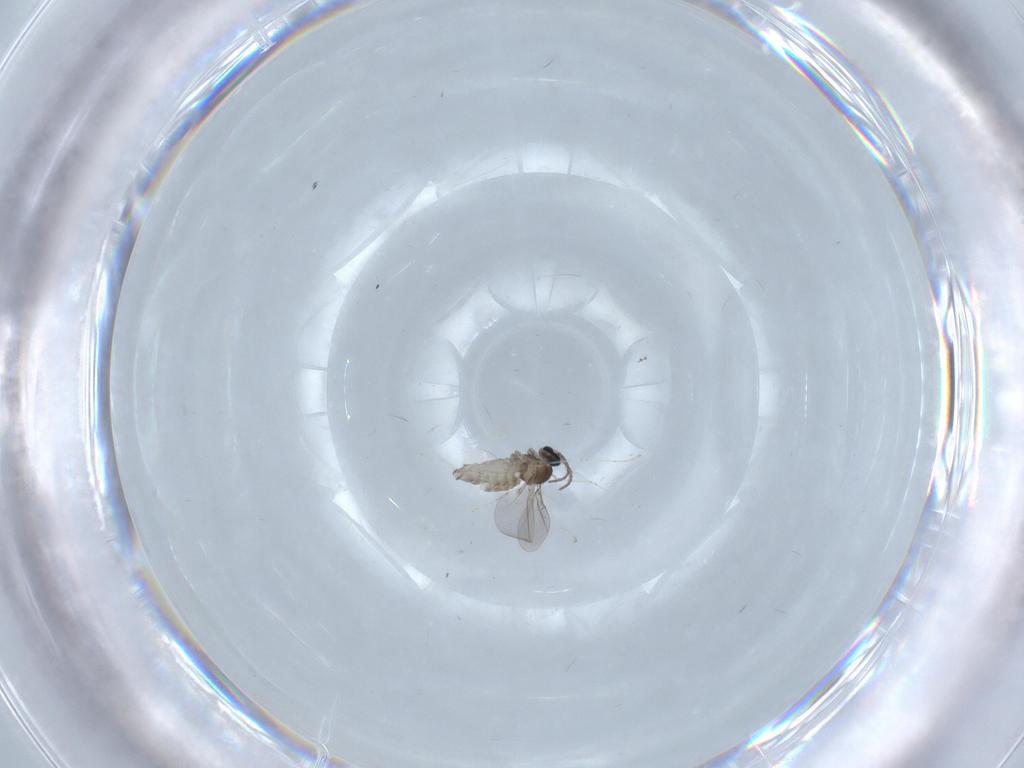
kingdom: Animalia
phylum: Arthropoda
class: Insecta
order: Diptera
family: Cecidomyiidae
